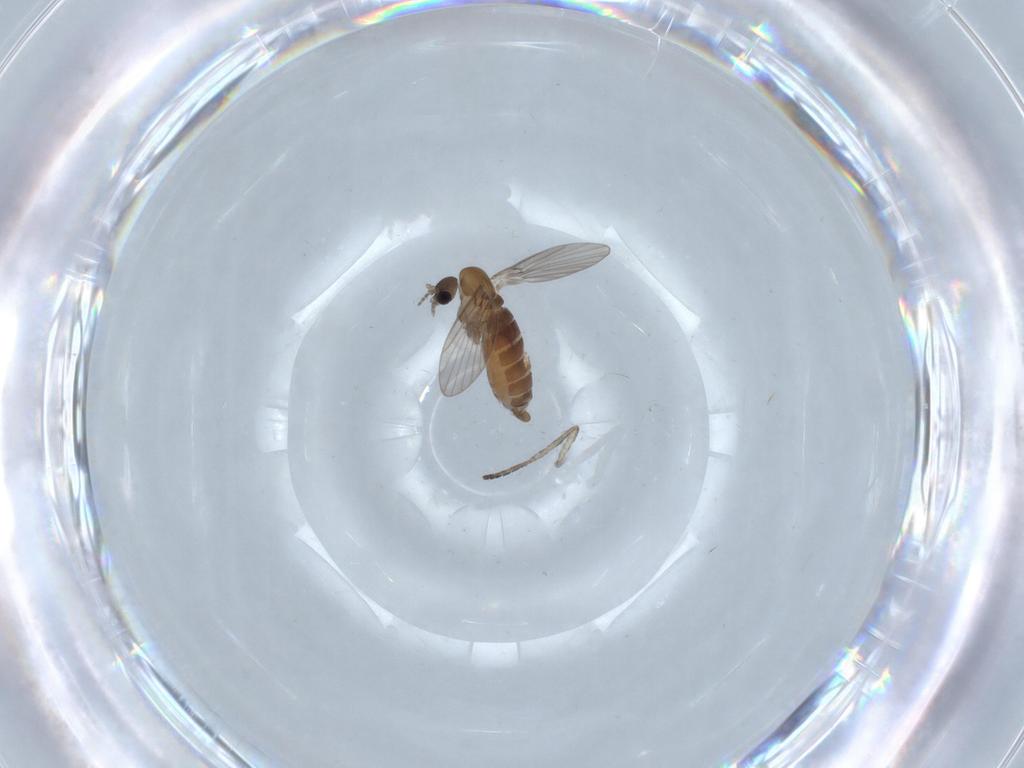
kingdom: Animalia
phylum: Arthropoda
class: Insecta
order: Diptera
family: Psychodidae
